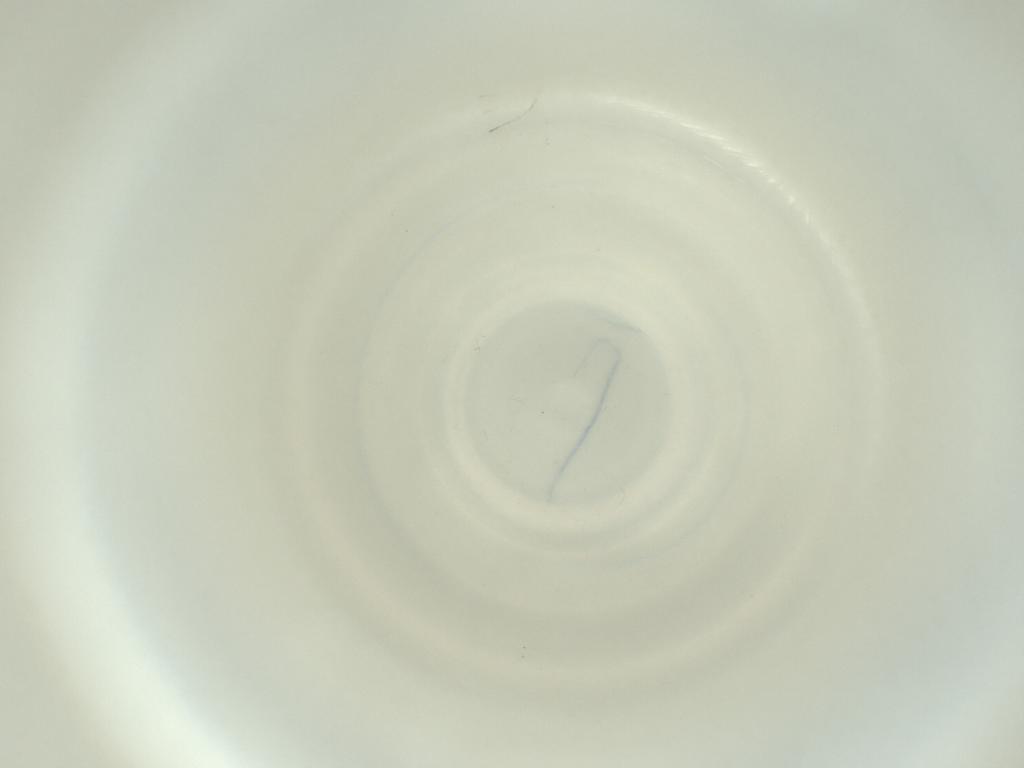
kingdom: Animalia
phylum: Arthropoda
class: Insecta
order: Diptera
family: Cecidomyiidae
